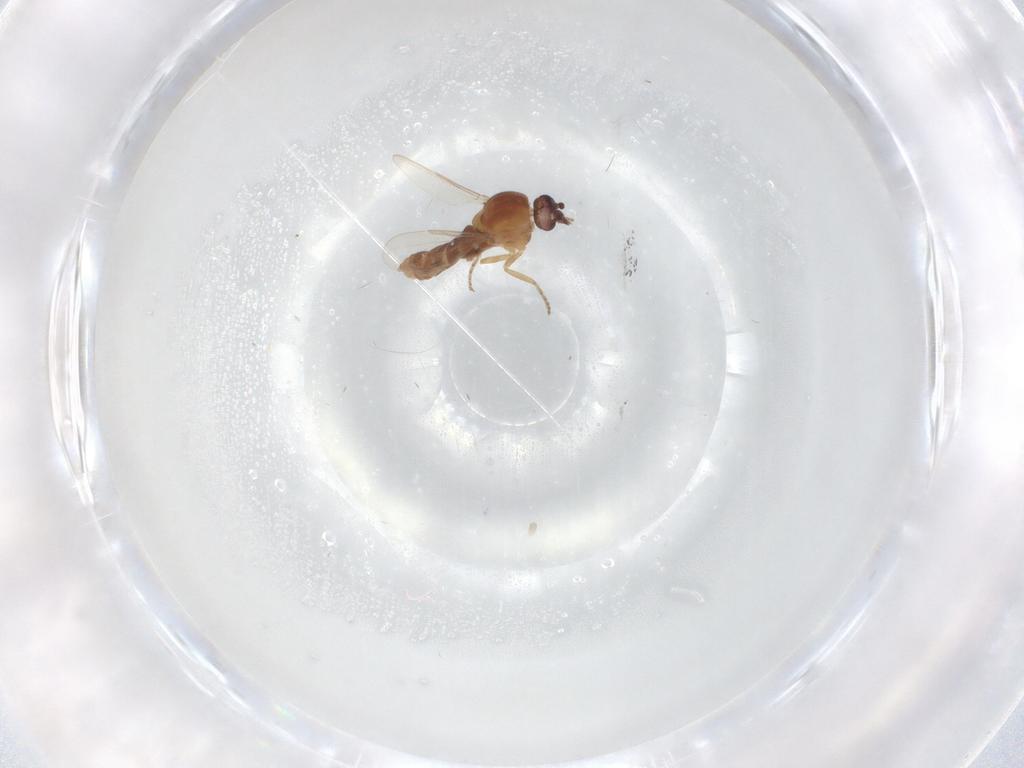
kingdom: Animalia
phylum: Arthropoda
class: Insecta
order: Diptera
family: Ceratopogonidae
